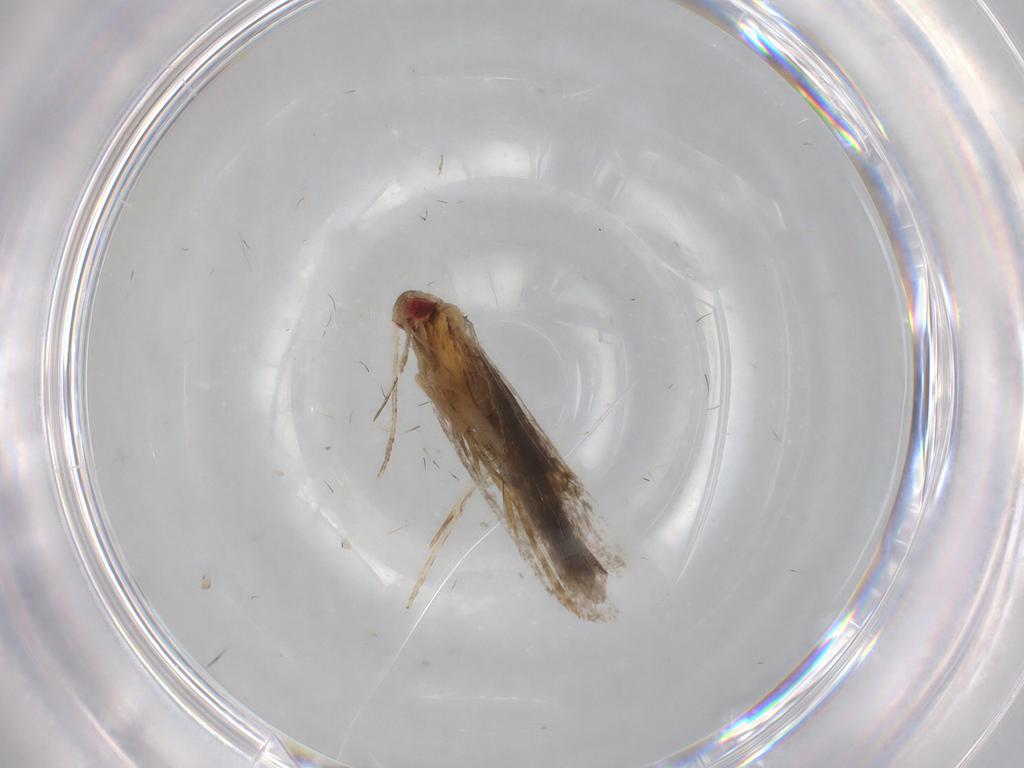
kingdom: Animalia
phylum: Arthropoda
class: Insecta
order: Lepidoptera
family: Gelechiidae
